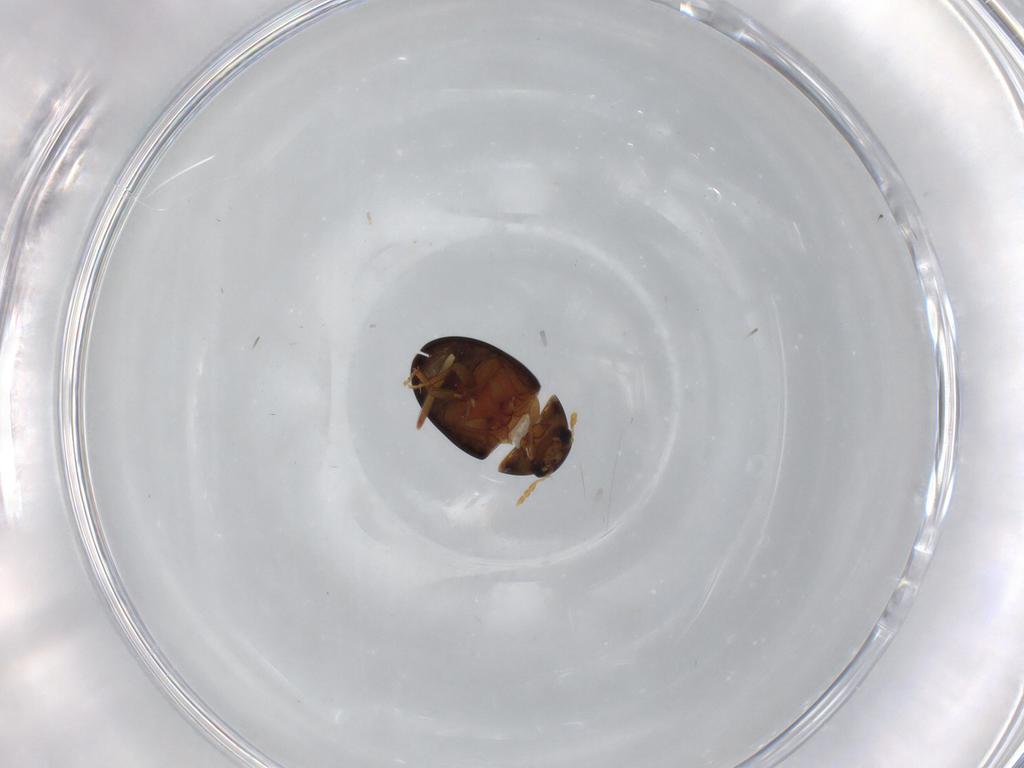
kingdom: Animalia
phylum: Arthropoda
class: Insecta
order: Coleoptera
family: Phalacridae
